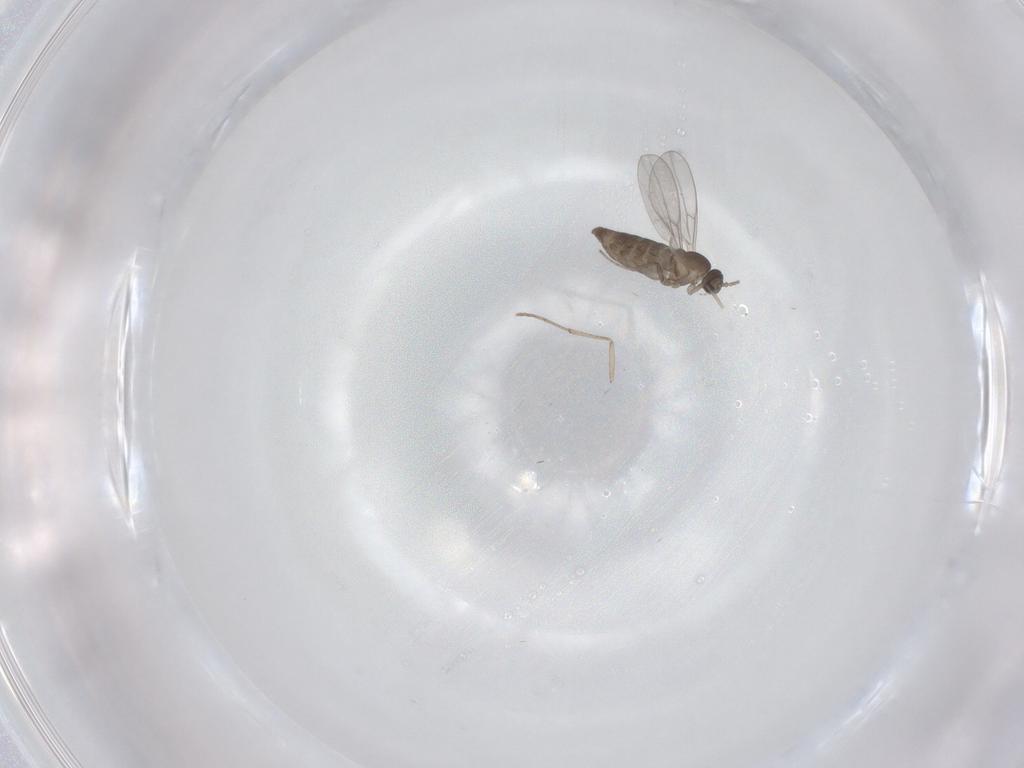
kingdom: Animalia
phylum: Arthropoda
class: Insecta
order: Diptera
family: Cecidomyiidae
